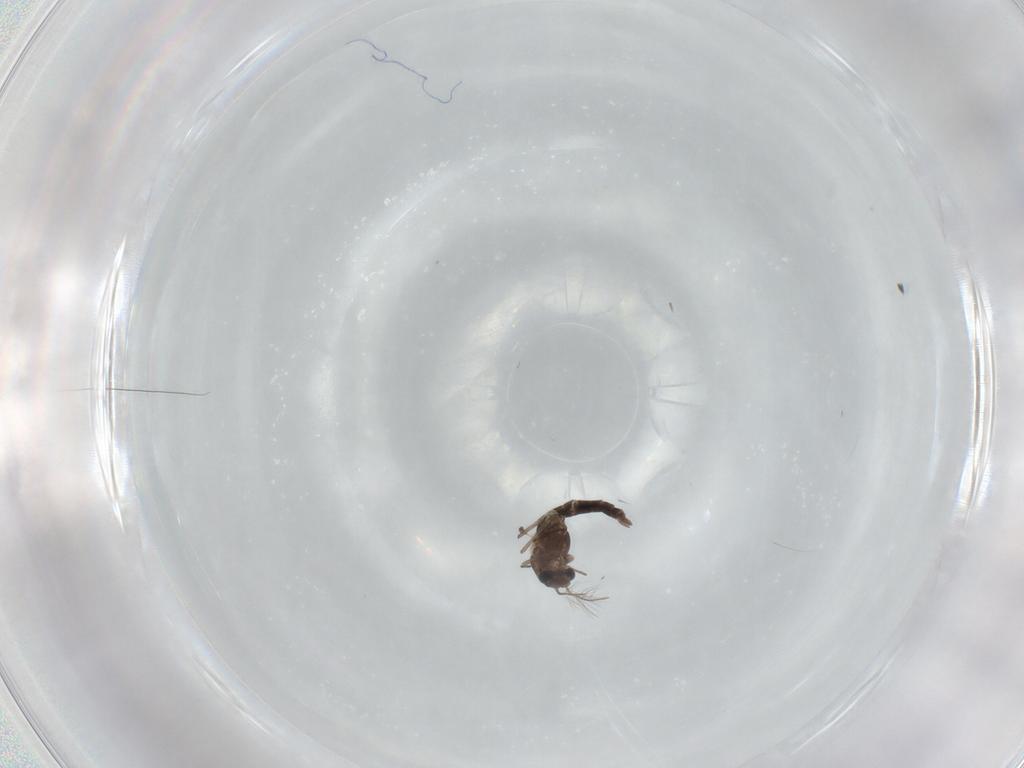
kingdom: Animalia
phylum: Arthropoda
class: Insecta
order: Diptera
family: Chironomidae
